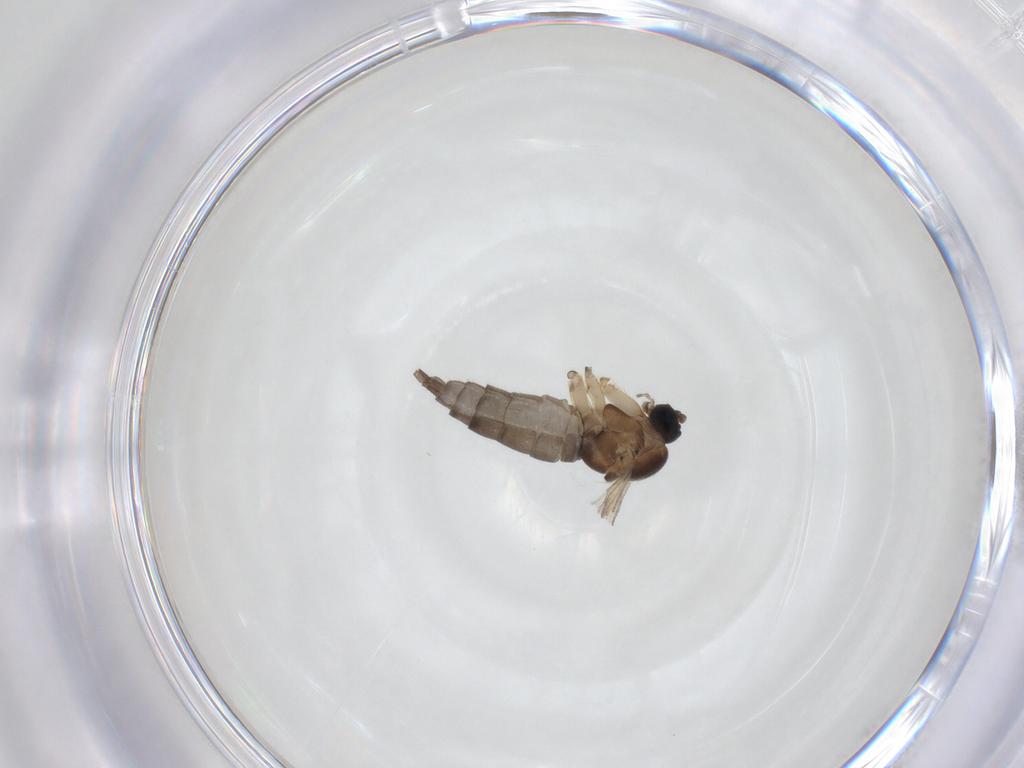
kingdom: Animalia
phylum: Arthropoda
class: Insecta
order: Diptera
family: Sciaridae
